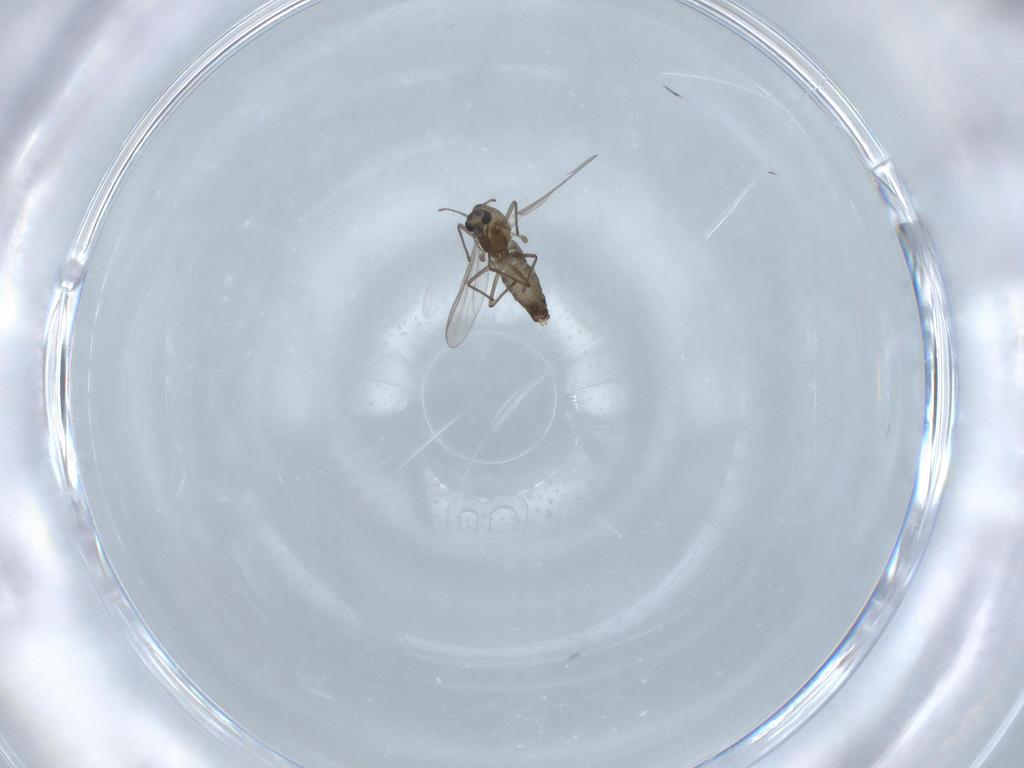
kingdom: Animalia
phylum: Arthropoda
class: Insecta
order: Diptera
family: Chironomidae
